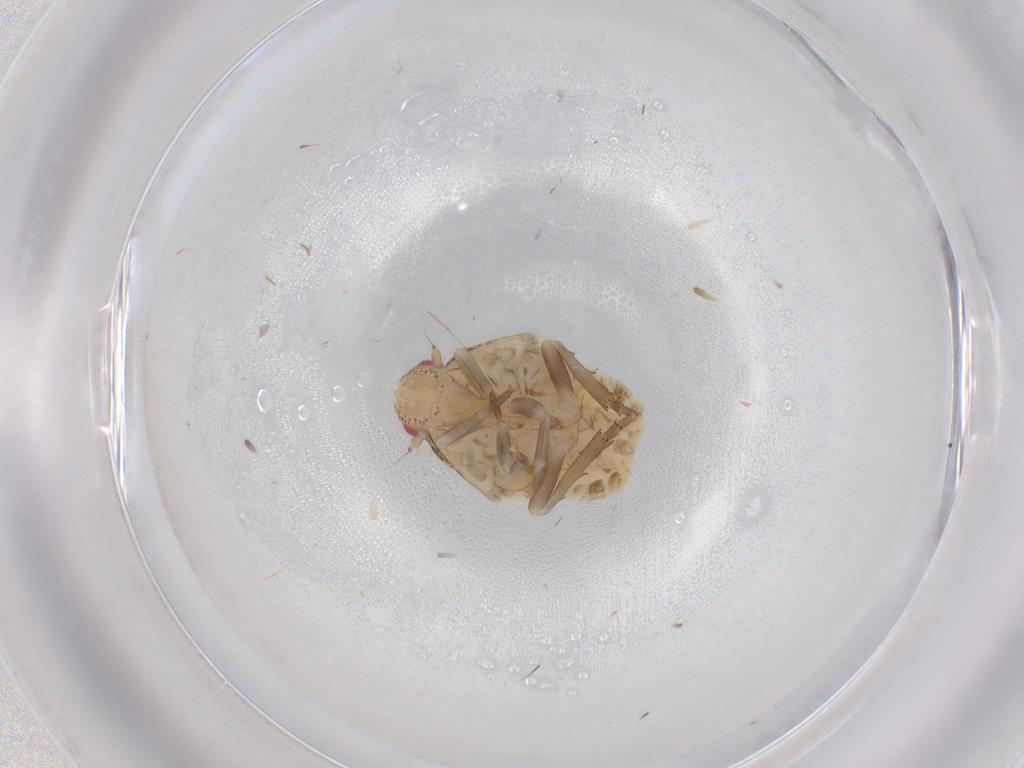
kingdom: Animalia
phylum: Arthropoda
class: Insecta
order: Hemiptera
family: Fulgoroidea_incertae_sedis
